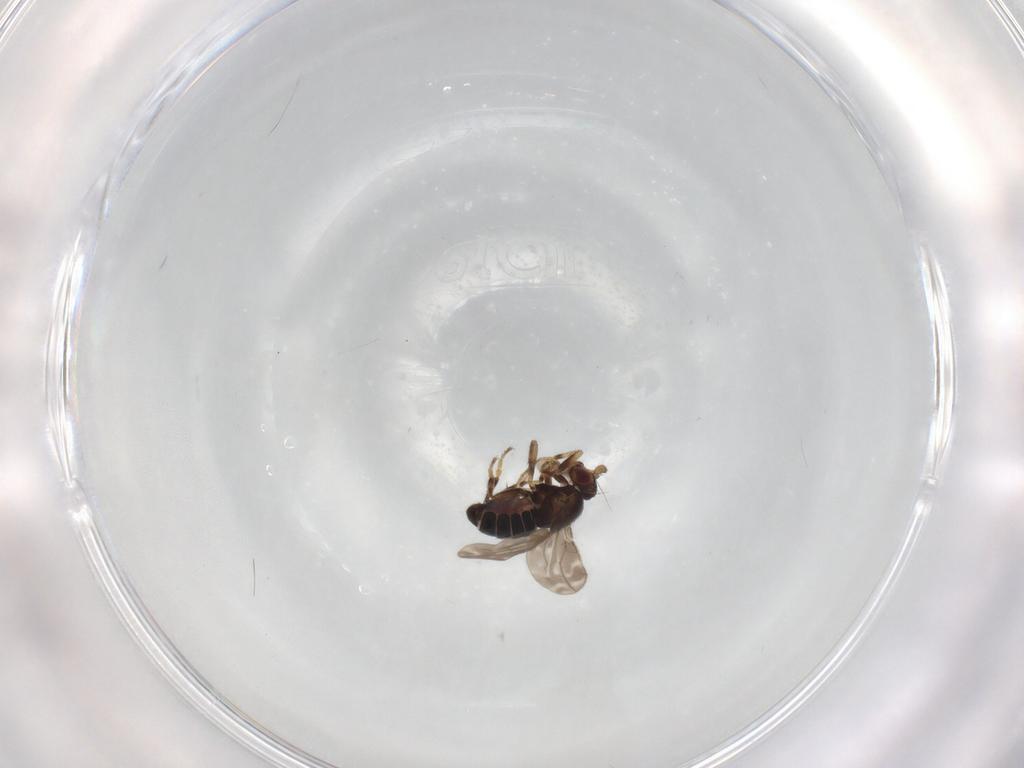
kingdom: Animalia
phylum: Arthropoda
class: Insecta
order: Diptera
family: Sphaeroceridae
